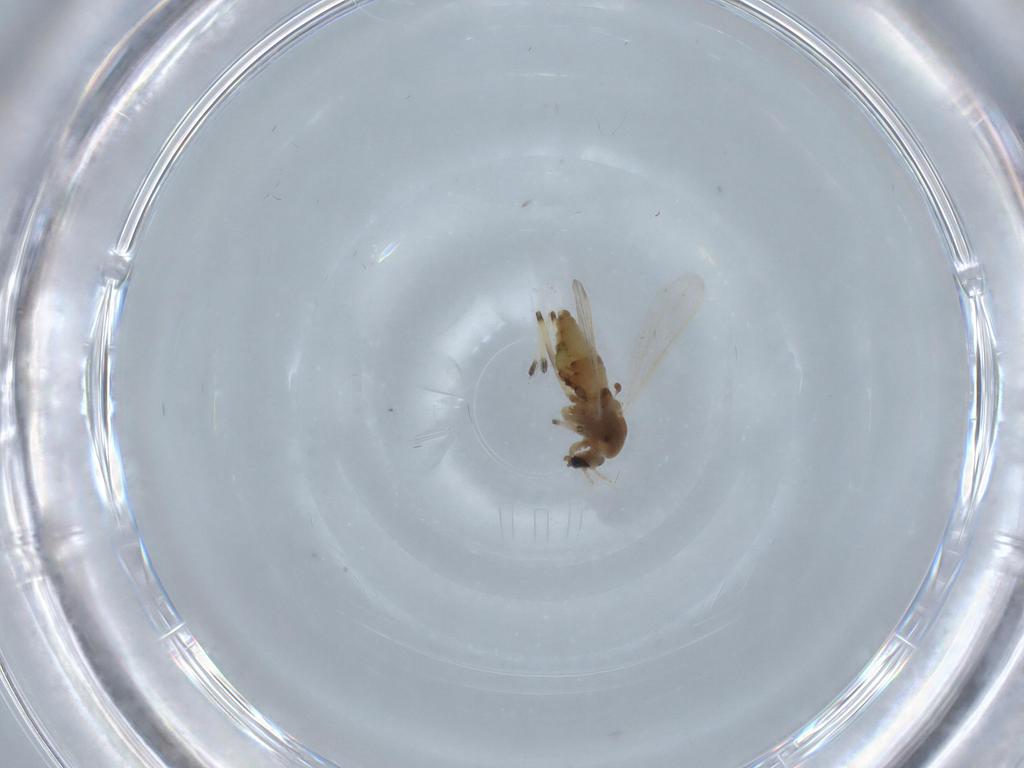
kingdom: Animalia
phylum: Arthropoda
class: Insecta
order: Diptera
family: Chironomidae
